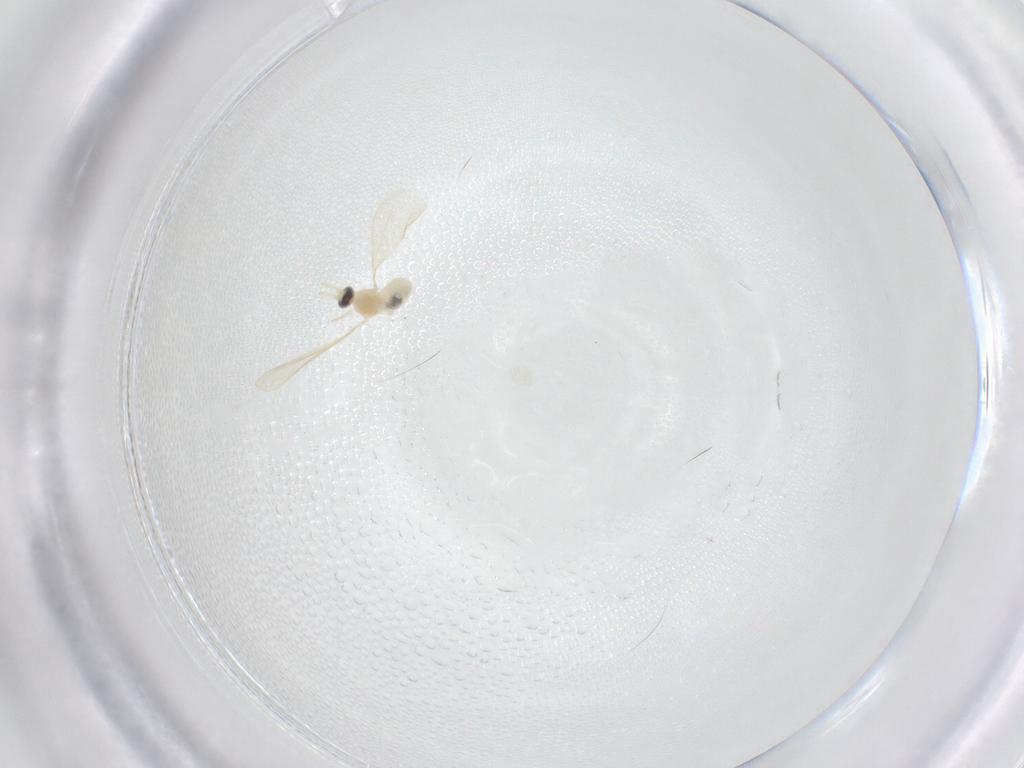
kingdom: Animalia
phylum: Arthropoda
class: Insecta
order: Diptera
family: Cecidomyiidae
